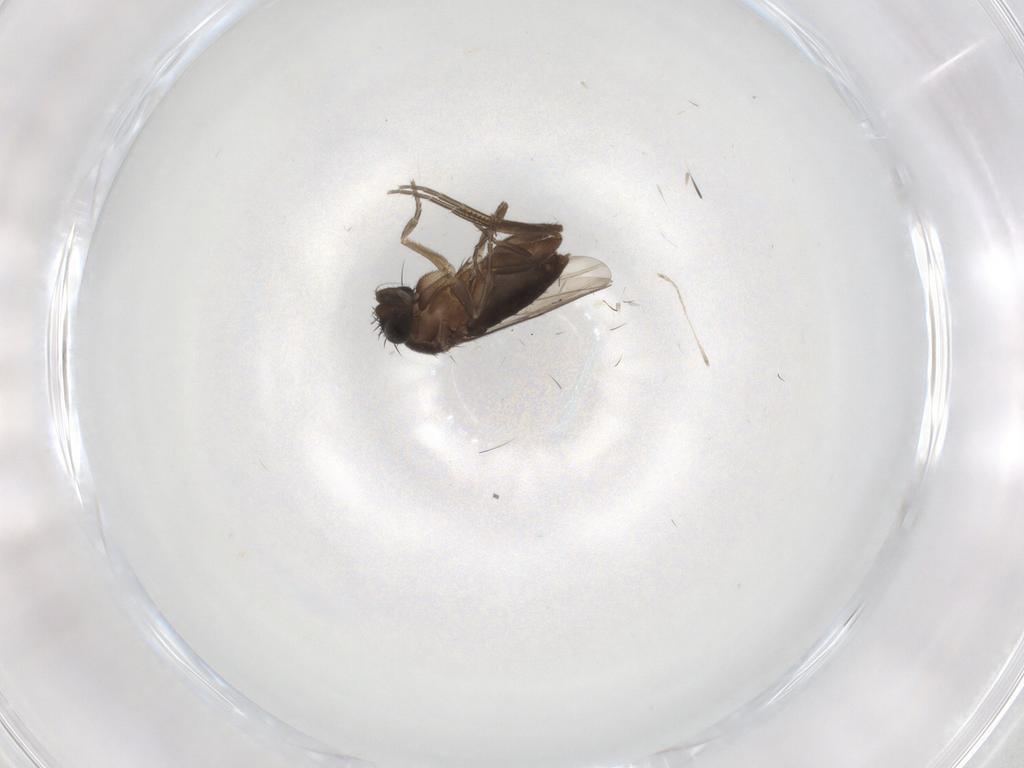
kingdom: Animalia
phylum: Arthropoda
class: Insecta
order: Diptera
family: Phoridae
